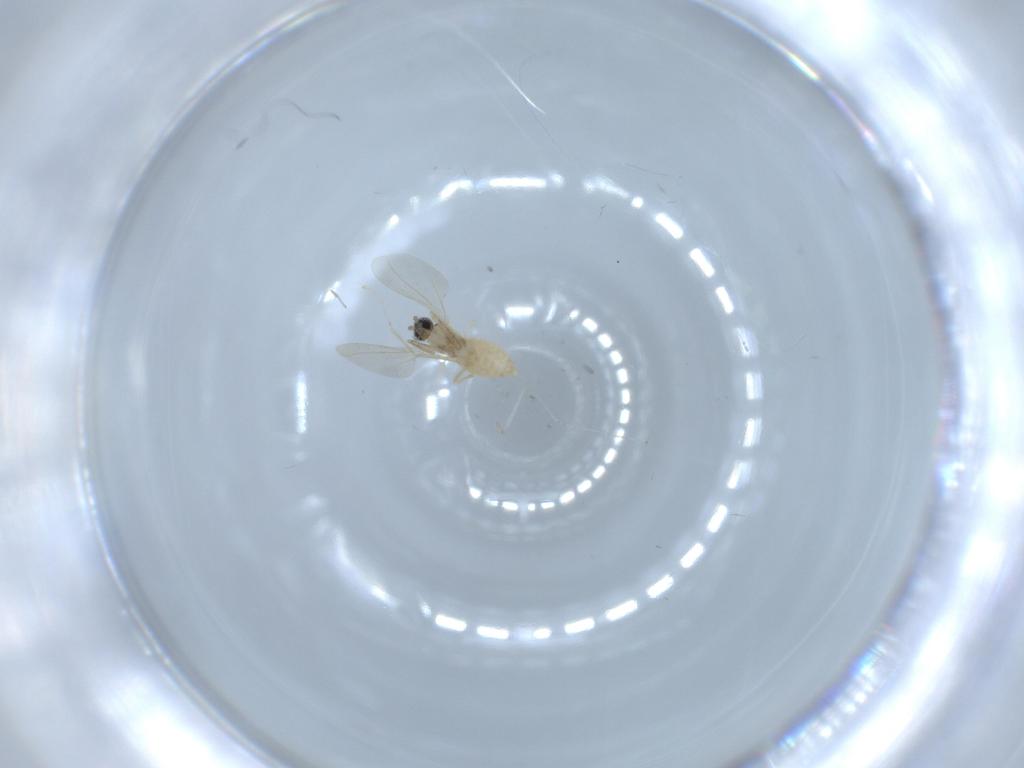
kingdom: Animalia
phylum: Arthropoda
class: Insecta
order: Diptera
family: Cecidomyiidae
